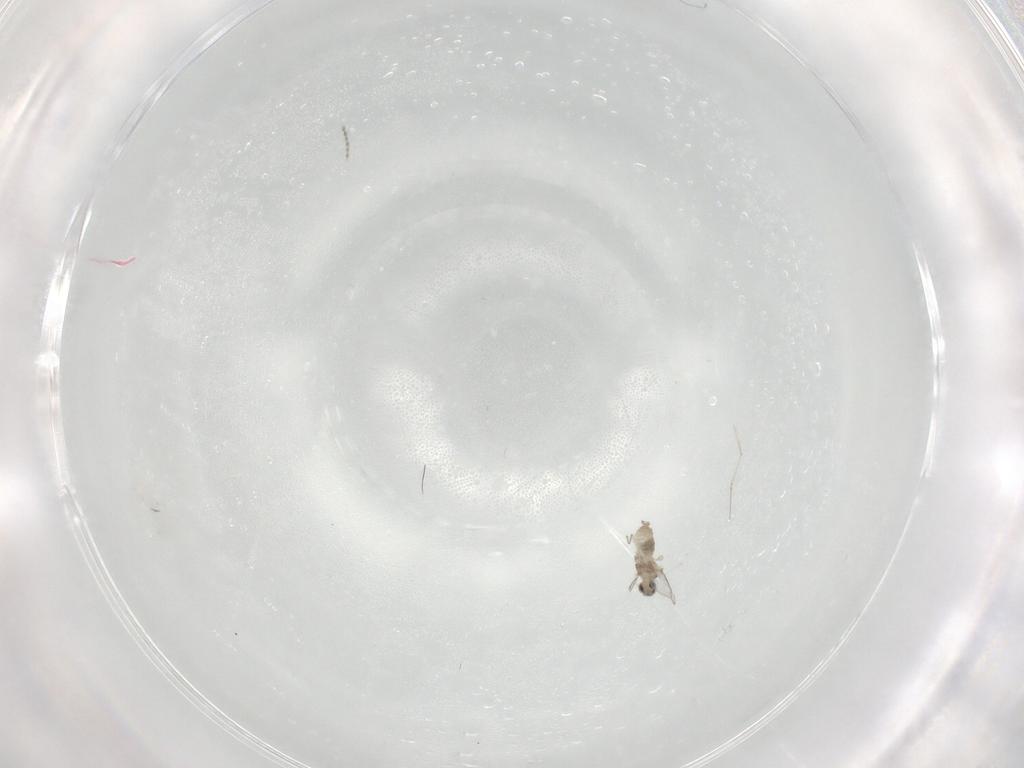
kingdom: Animalia
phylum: Arthropoda
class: Insecta
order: Diptera
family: Cecidomyiidae
